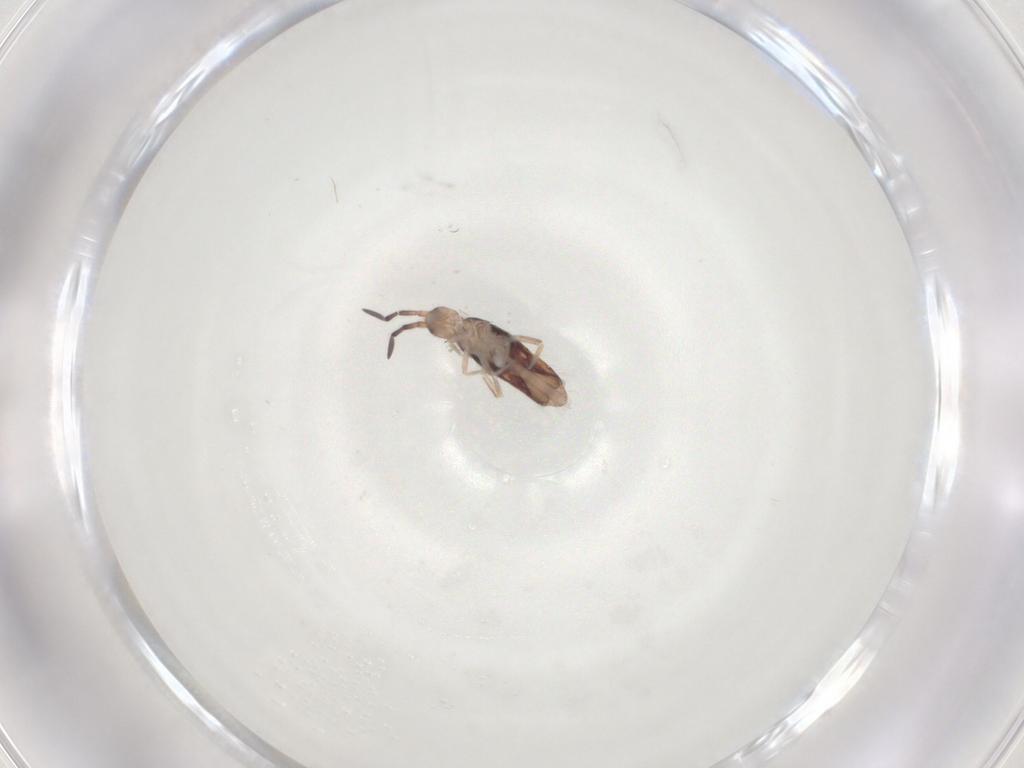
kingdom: Animalia
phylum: Arthropoda
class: Collembola
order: Entomobryomorpha
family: Entomobryidae
